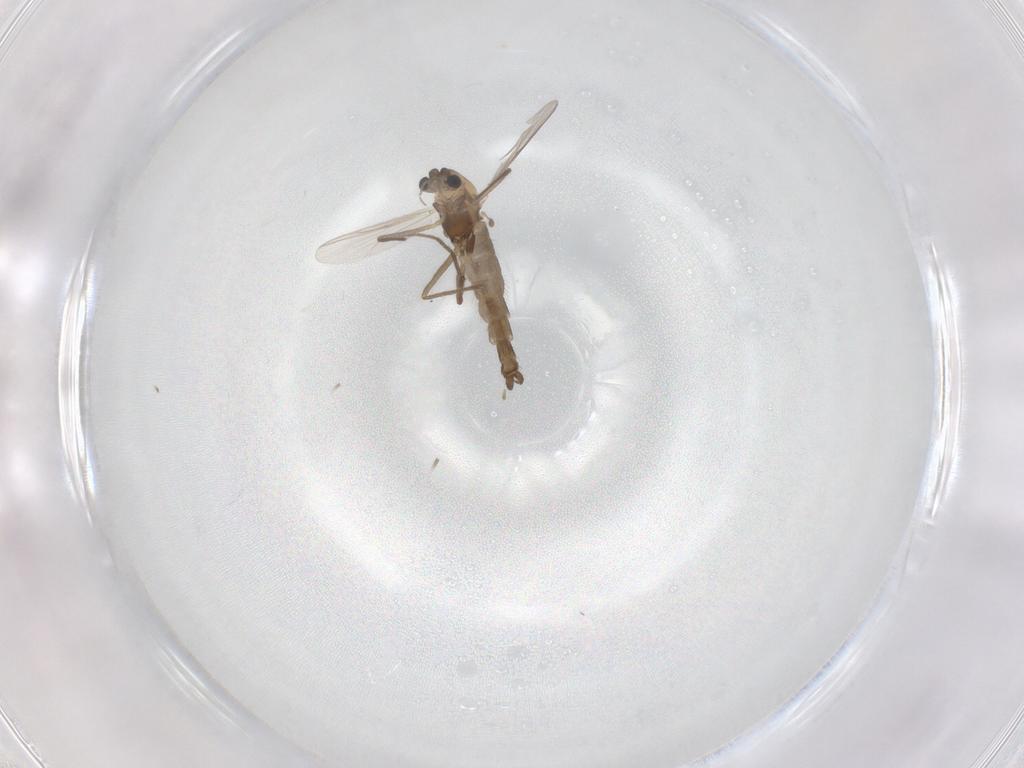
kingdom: Animalia
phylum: Arthropoda
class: Insecta
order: Diptera
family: Chironomidae
